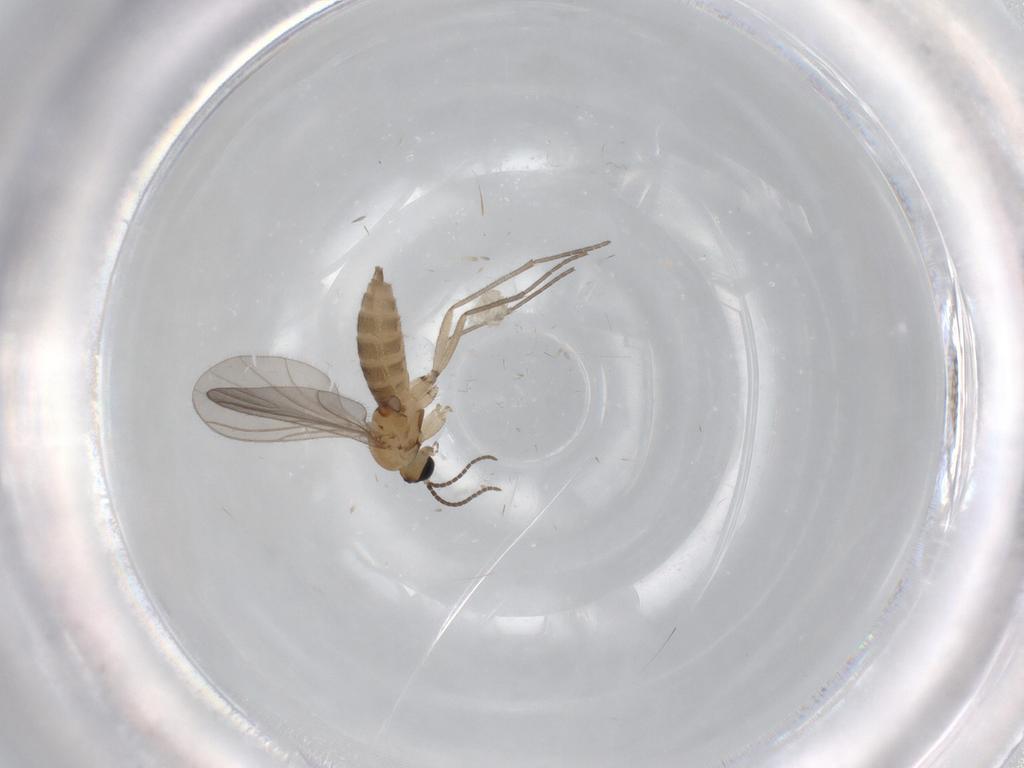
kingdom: Animalia
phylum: Arthropoda
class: Insecta
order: Diptera
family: Sciaridae
